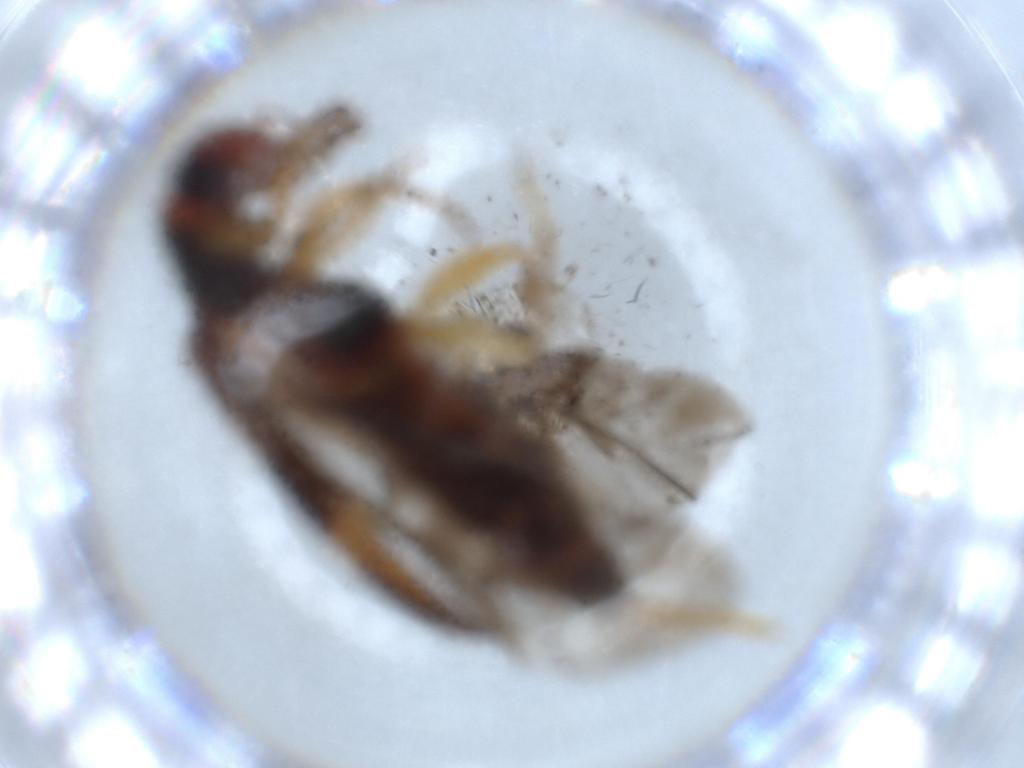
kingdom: Animalia
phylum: Arthropoda
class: Insecta
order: Coleoptera
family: Cleridae
